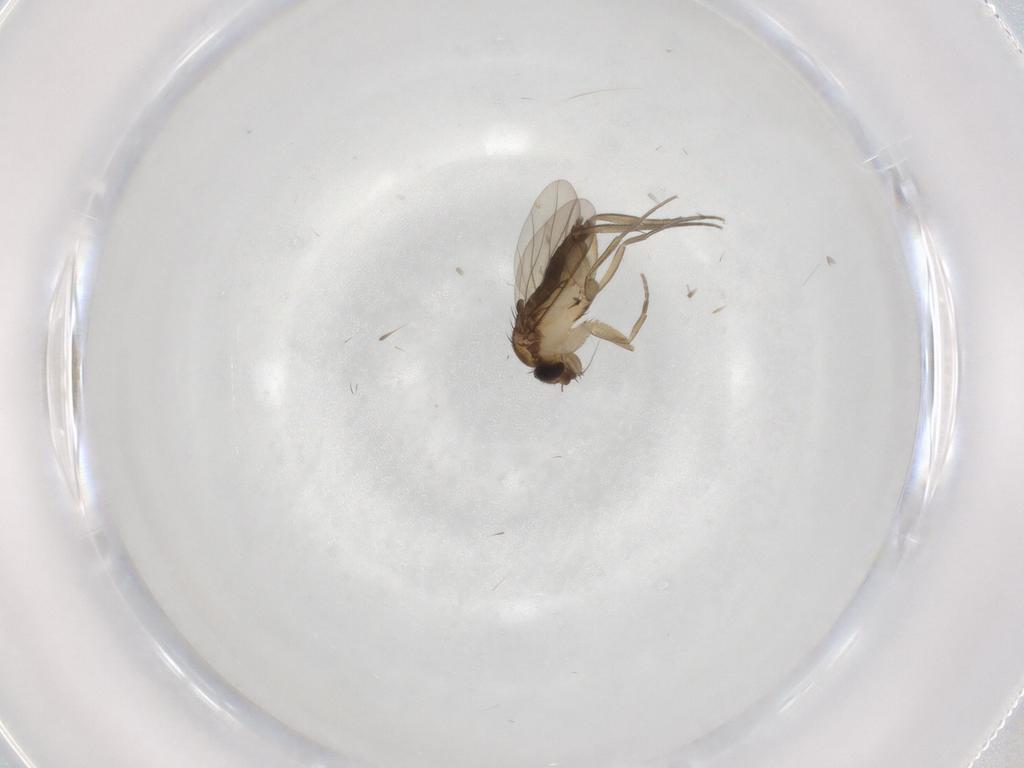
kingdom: Animalia
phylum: Arthropoda
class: Insecta
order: Diptera
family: Phoridae
